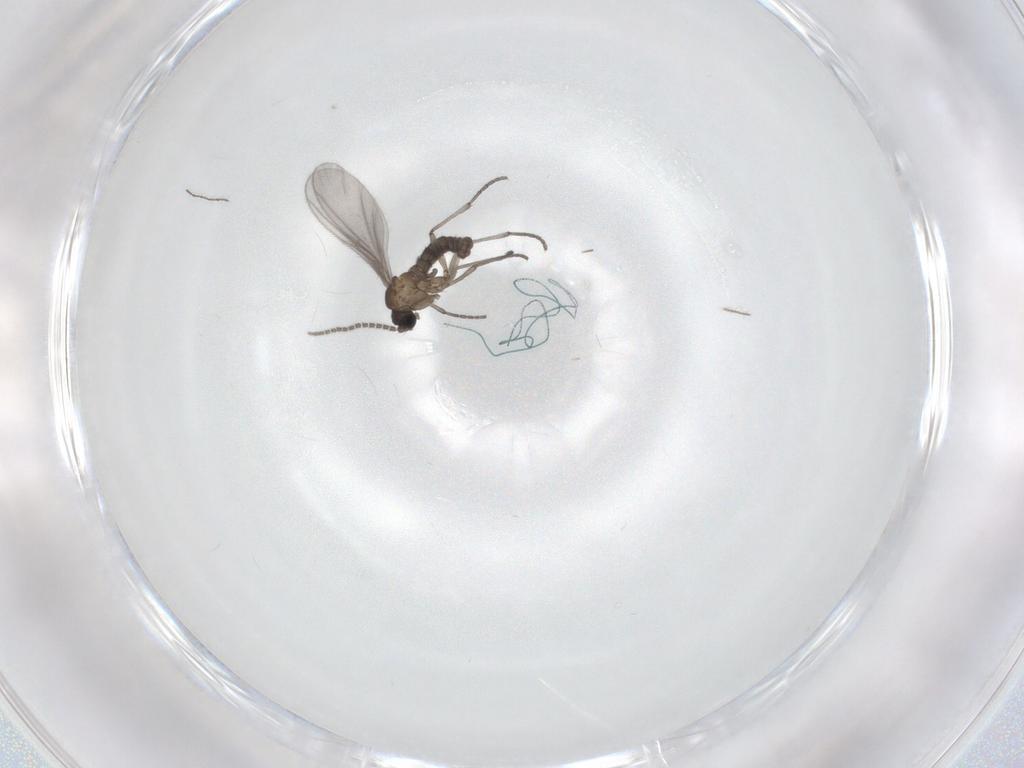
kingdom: Animalia
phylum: Arthropoda
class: Insecta
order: Diptera
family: Ceratopogonidae
